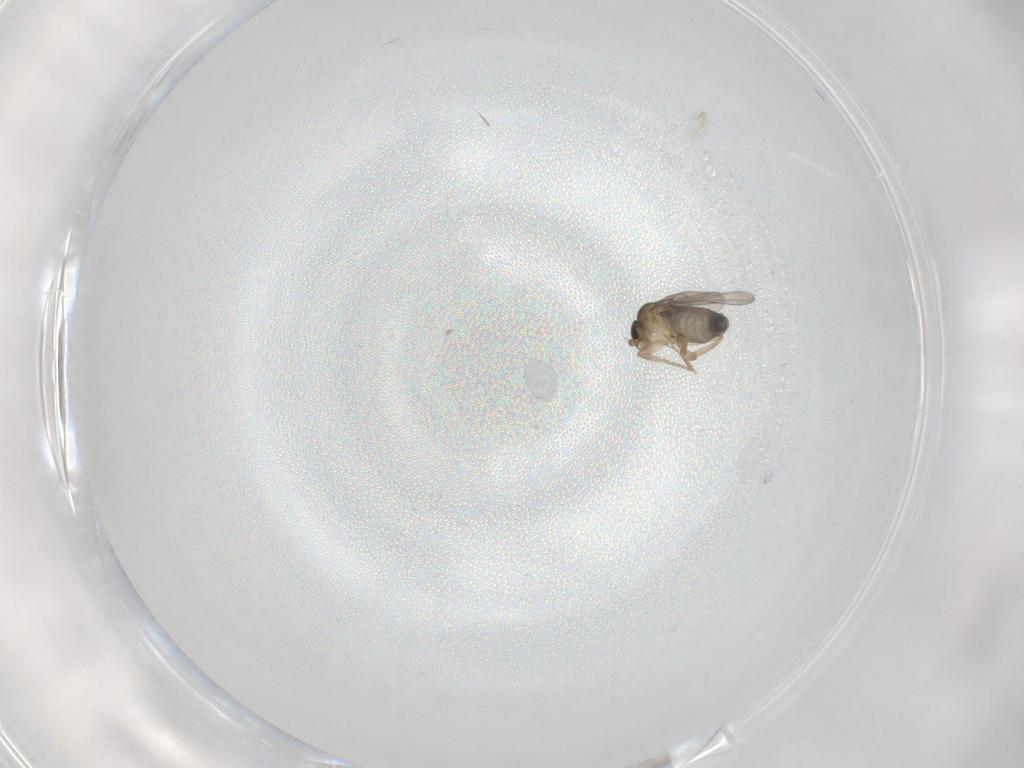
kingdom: Animalia
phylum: Arthropoda
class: Insecta
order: Diptera
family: Phoridae
